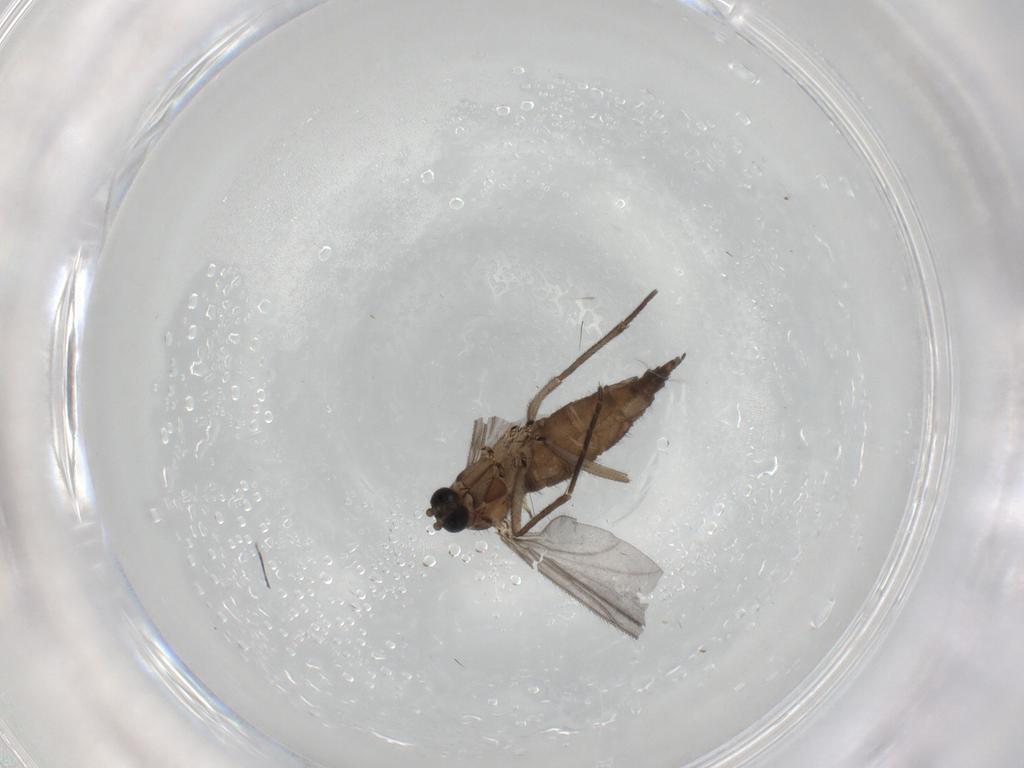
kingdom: Animalia
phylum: Arthropoda
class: Insecta
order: Diptera
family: Sciaridae
